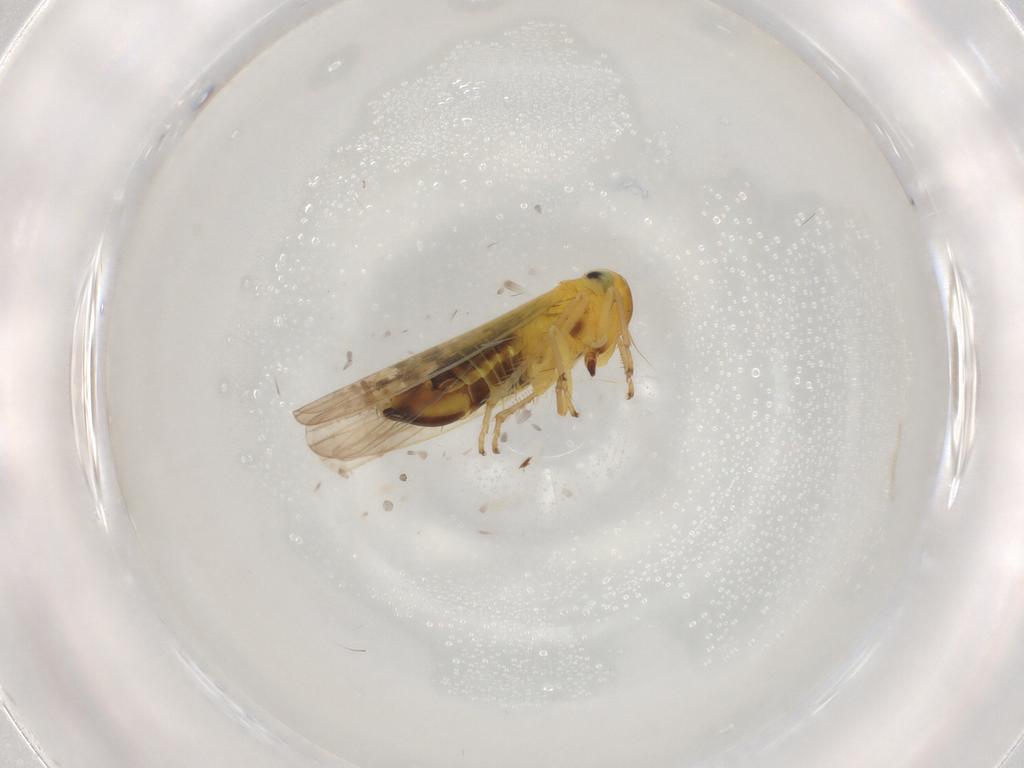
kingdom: Animalia
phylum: Arthropoda
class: Insecta
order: Hemiptera
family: Cicadellidae
